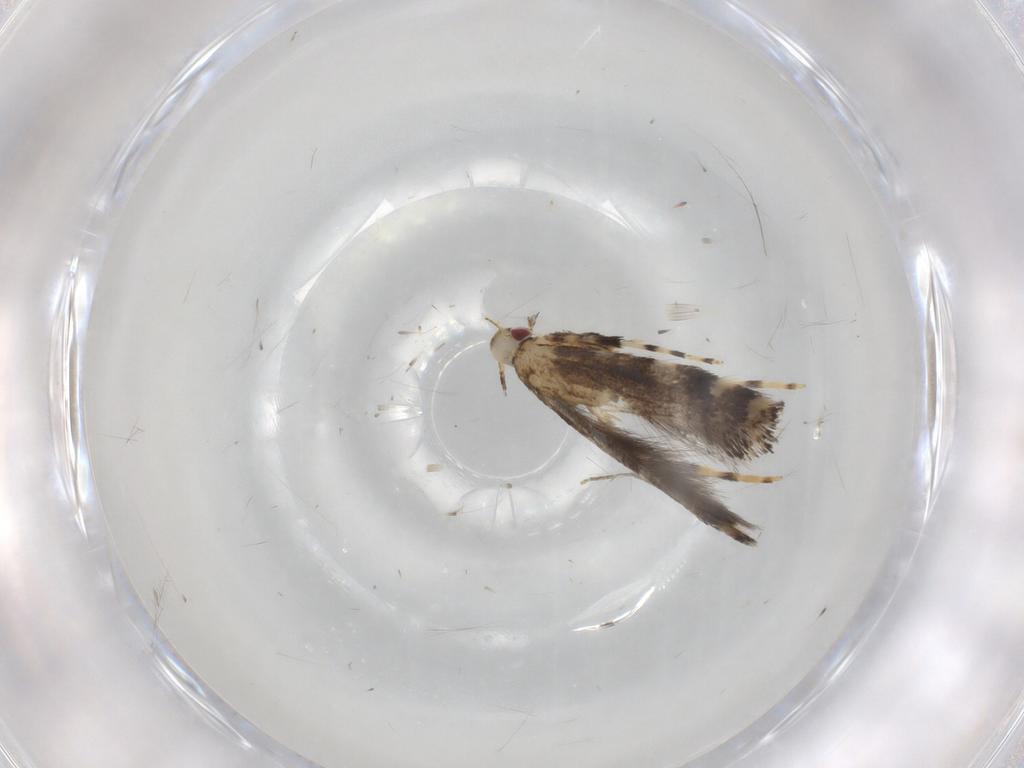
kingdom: Animalia
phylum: Arthropoda
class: Insecta
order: Lepidoptera
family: Gracillariidae
